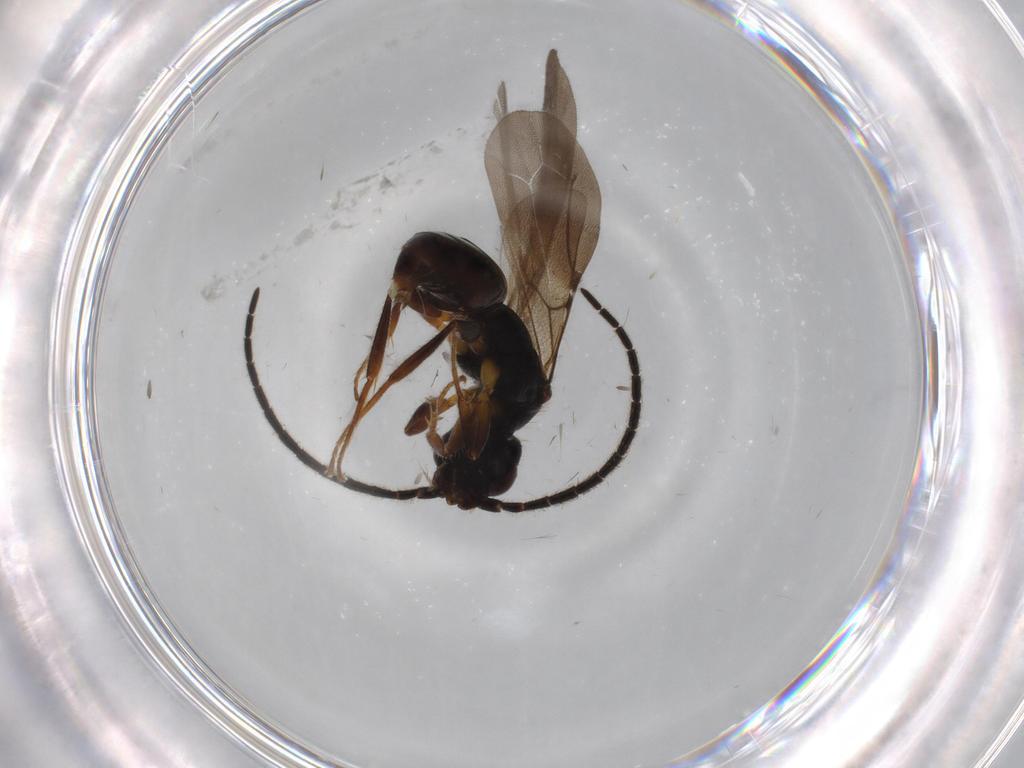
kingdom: Animalia
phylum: Arthropoda
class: Insecta
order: Hymenoptera
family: Bethylidae
